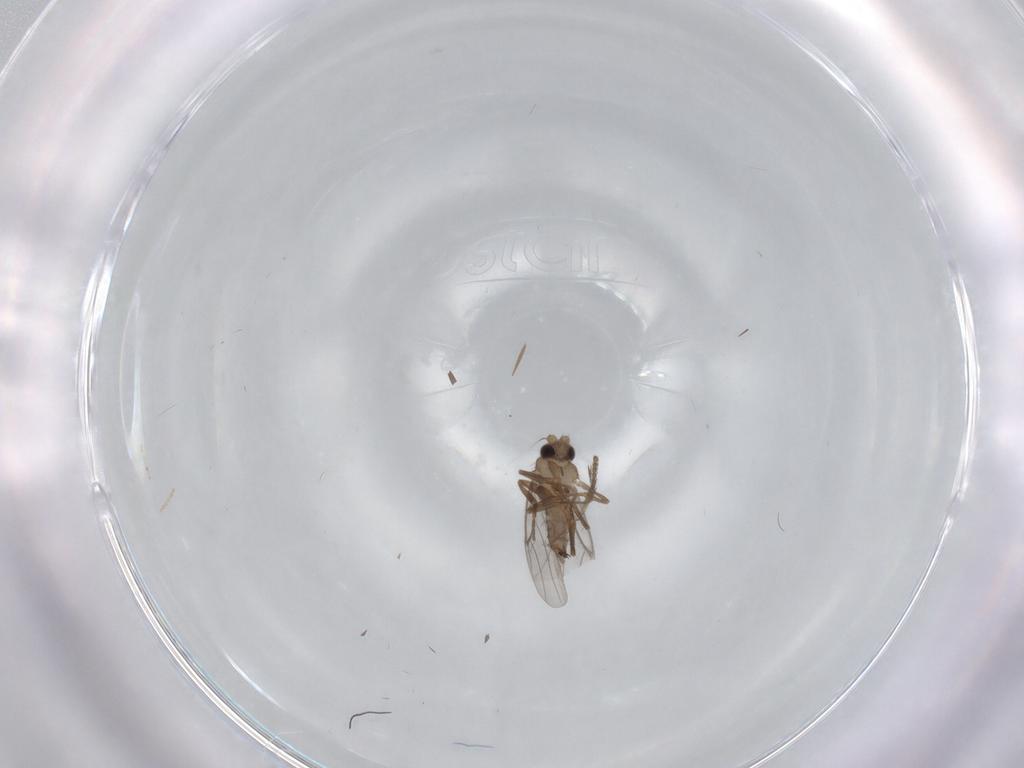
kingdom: Animalia
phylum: Arthropoda
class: Insecta
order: Diptera
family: Cecidomyiidae
